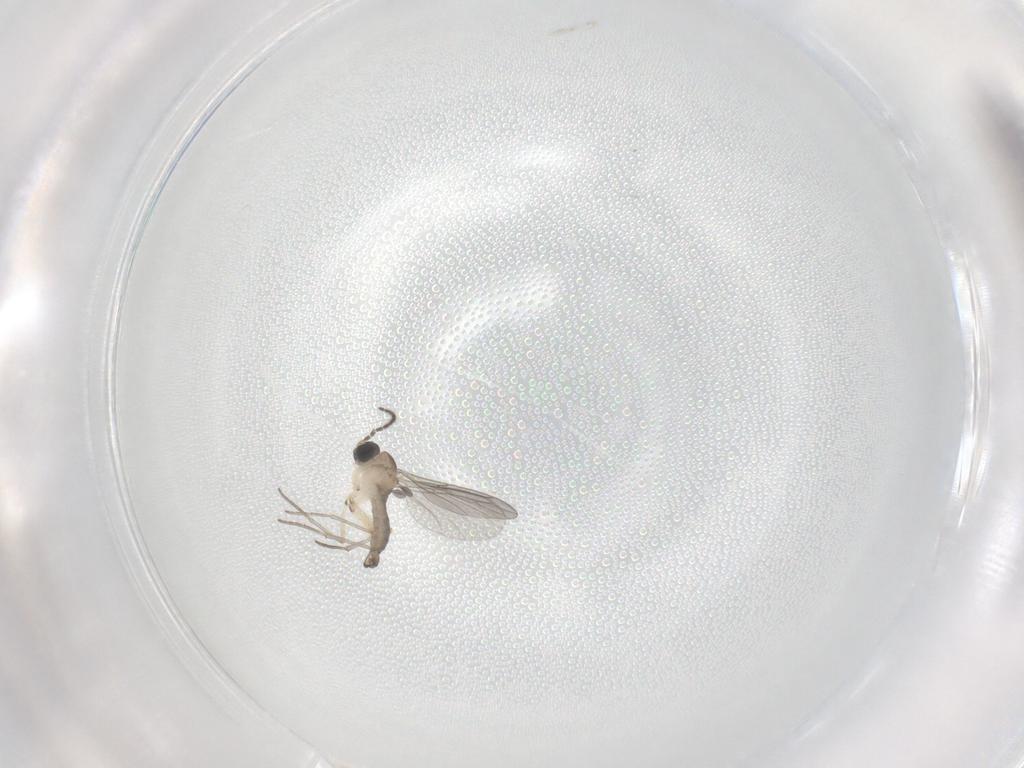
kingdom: Animalia
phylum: Arthropoda
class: Insecta
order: Diptera
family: Sciaridae
